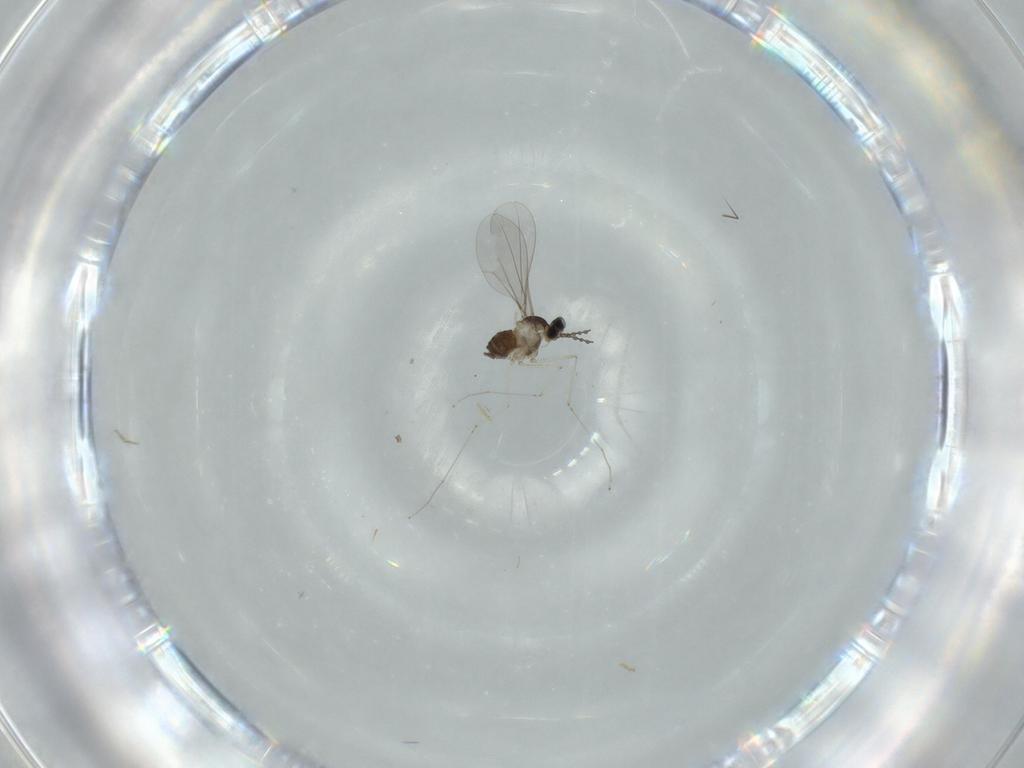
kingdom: Animalia
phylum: Arthropoda
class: Insecta
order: Diptera
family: Cecidomyiidae
